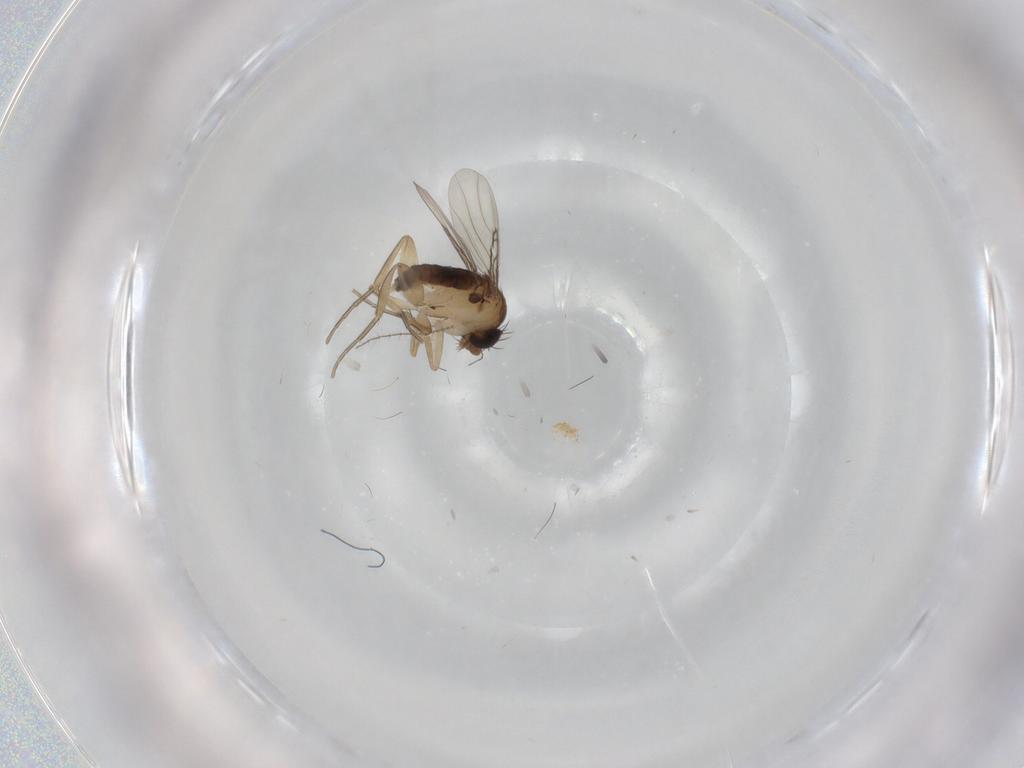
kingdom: Animalia
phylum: Arthropoda
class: Insecta
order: Diptera
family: Phoridae
